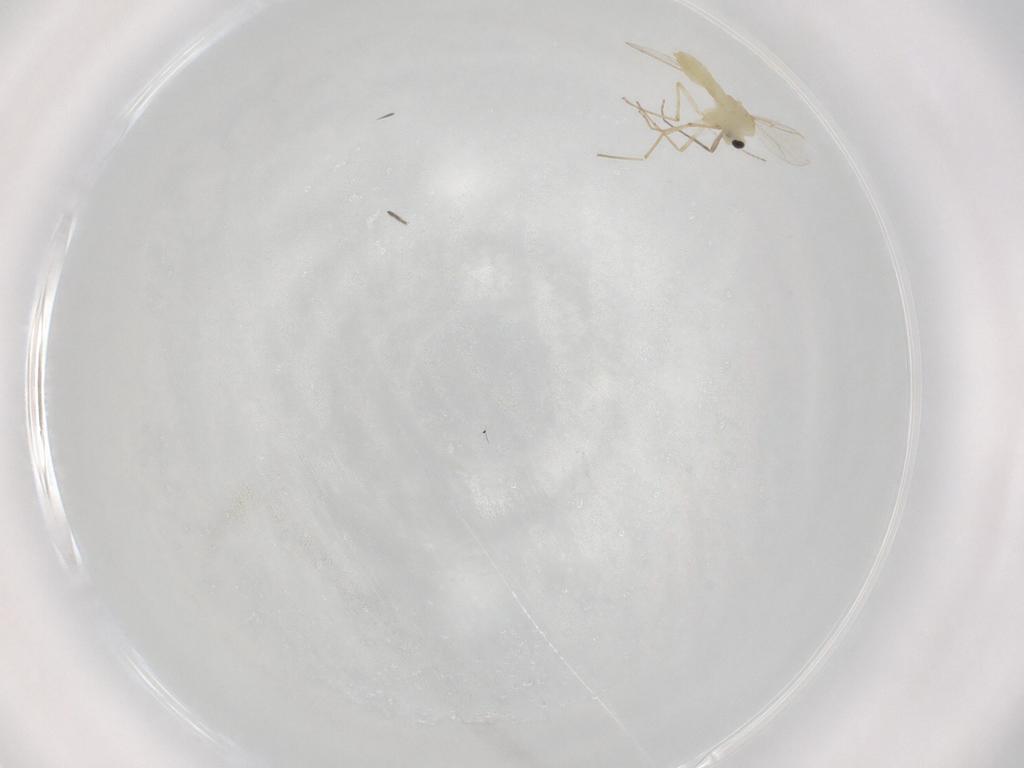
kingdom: Animalia
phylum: Arthropoda
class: Insecta
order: Diptera
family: Chironomidae
